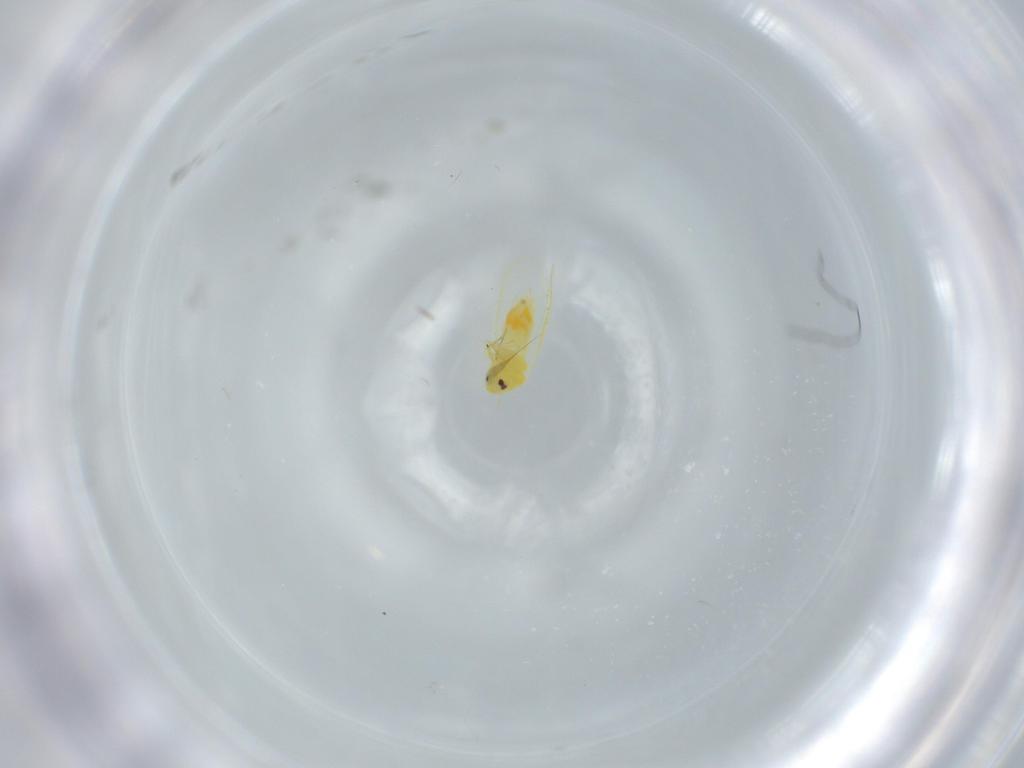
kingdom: Animalia
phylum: Arthropoda
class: Insecta
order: Hemiptera
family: Aleyrodidae
